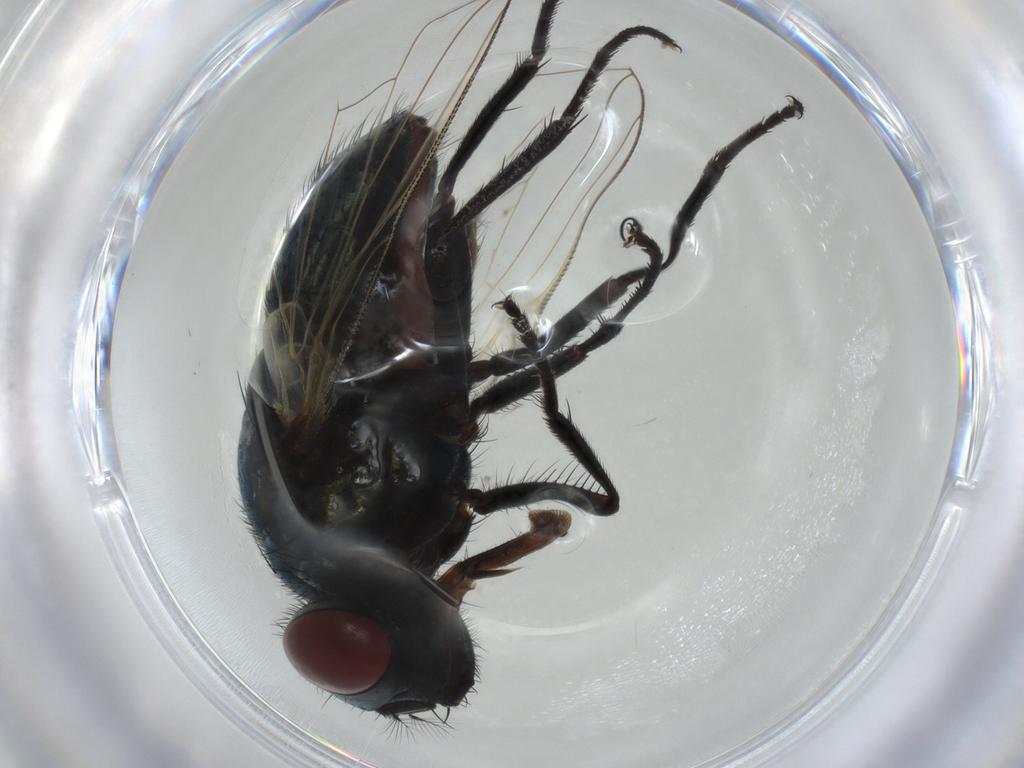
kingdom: Animalia
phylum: Arthropoda
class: Insecta
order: Diptera
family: Muscidae
